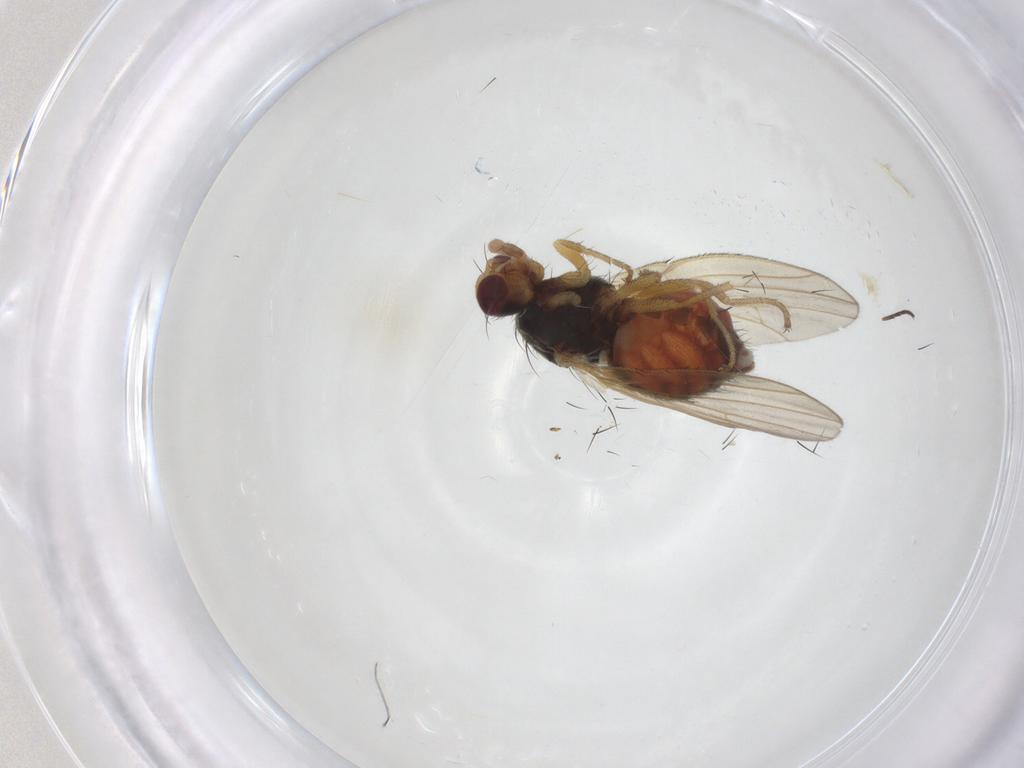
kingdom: Animalia
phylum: Arthropoda
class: Insecta
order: Diptera
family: Heleomyzidae
